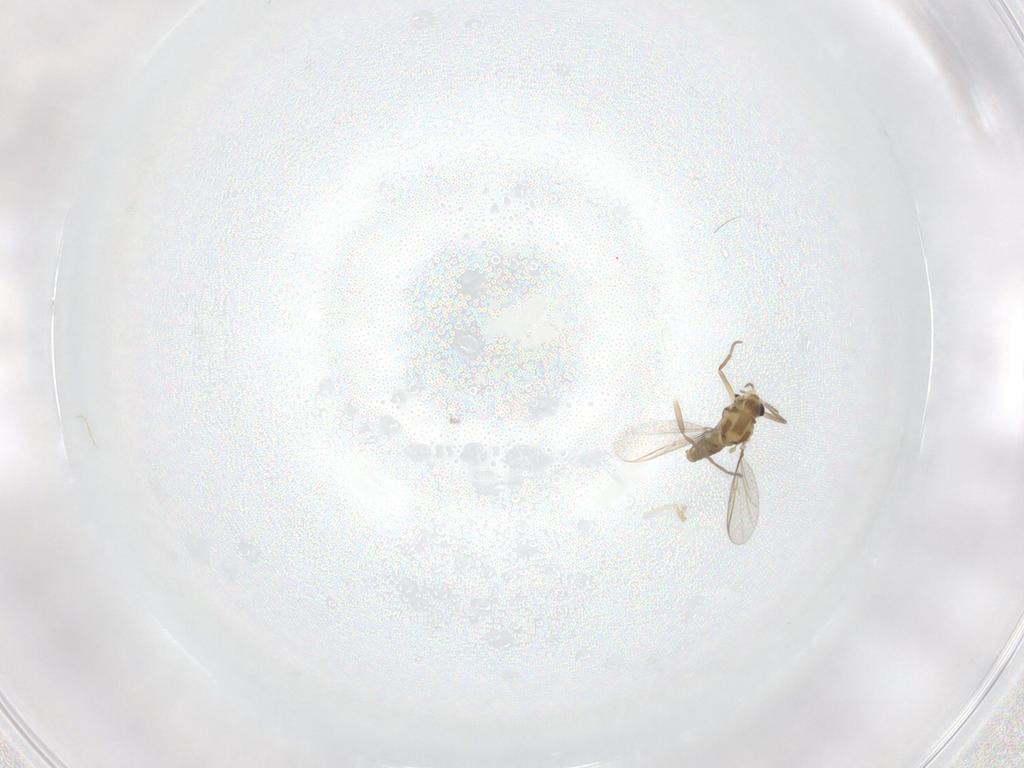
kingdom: Animalia
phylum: Arthropoda
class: Insecta
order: Diptera
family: Chironomidae
